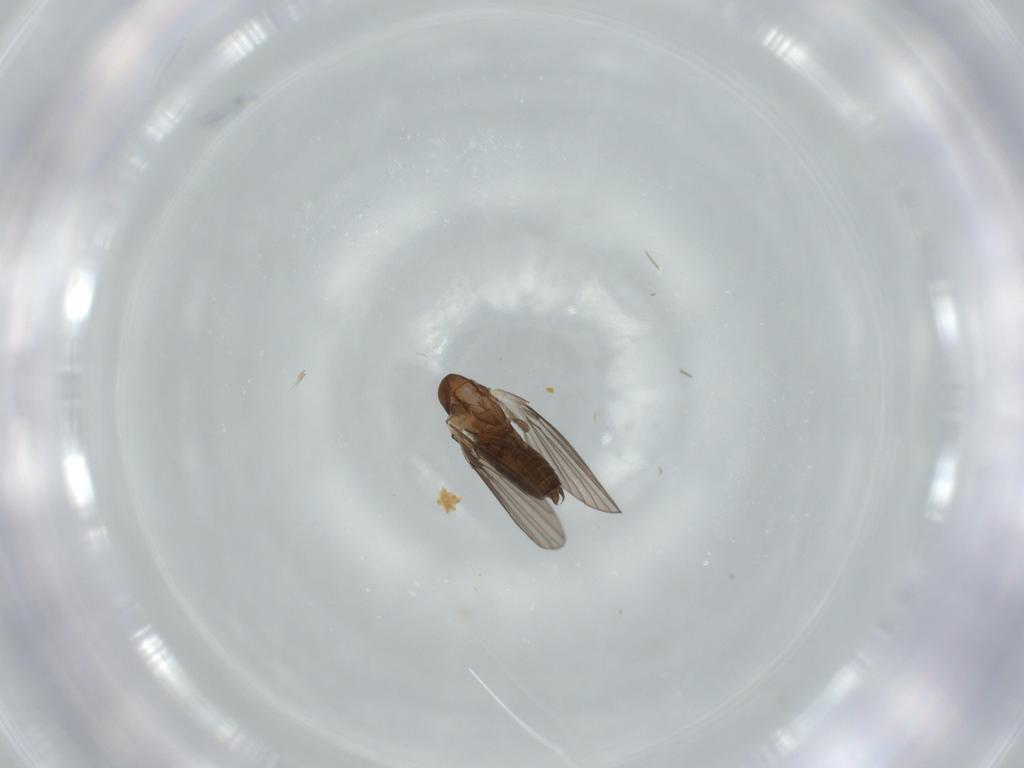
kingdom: Animalia
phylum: Arthropoda
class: Insecta
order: Diptera
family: Psychodidae
